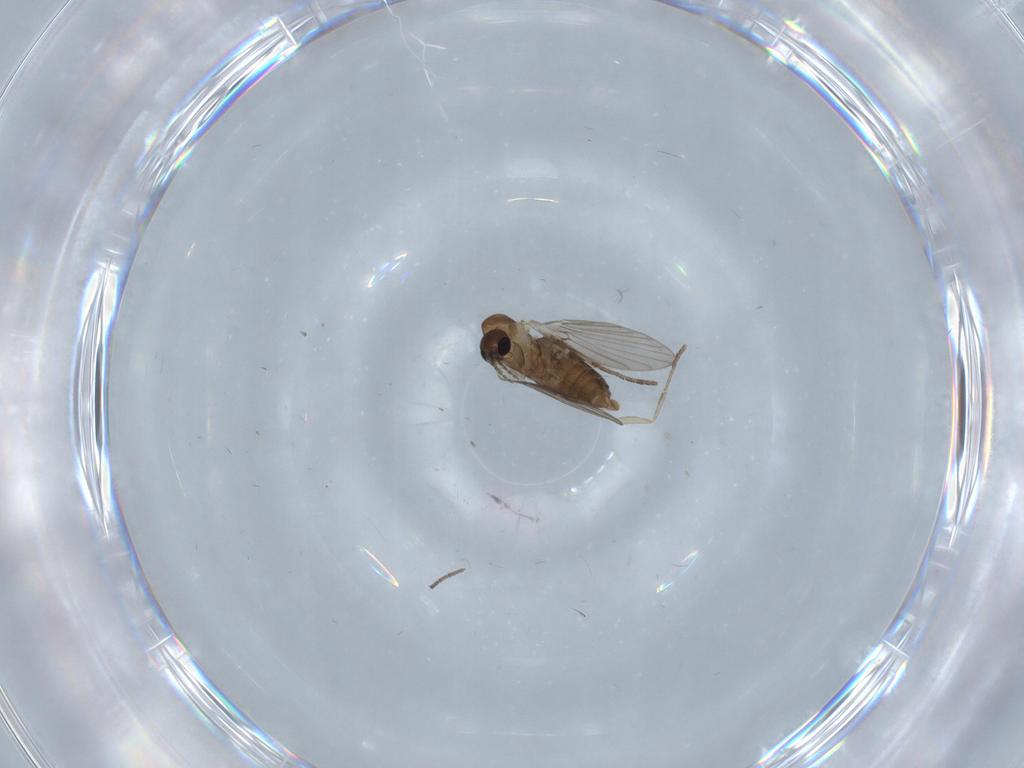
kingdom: Animalia
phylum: Arthropoda
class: Insecta
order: Diptera
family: Dolichopodidae
